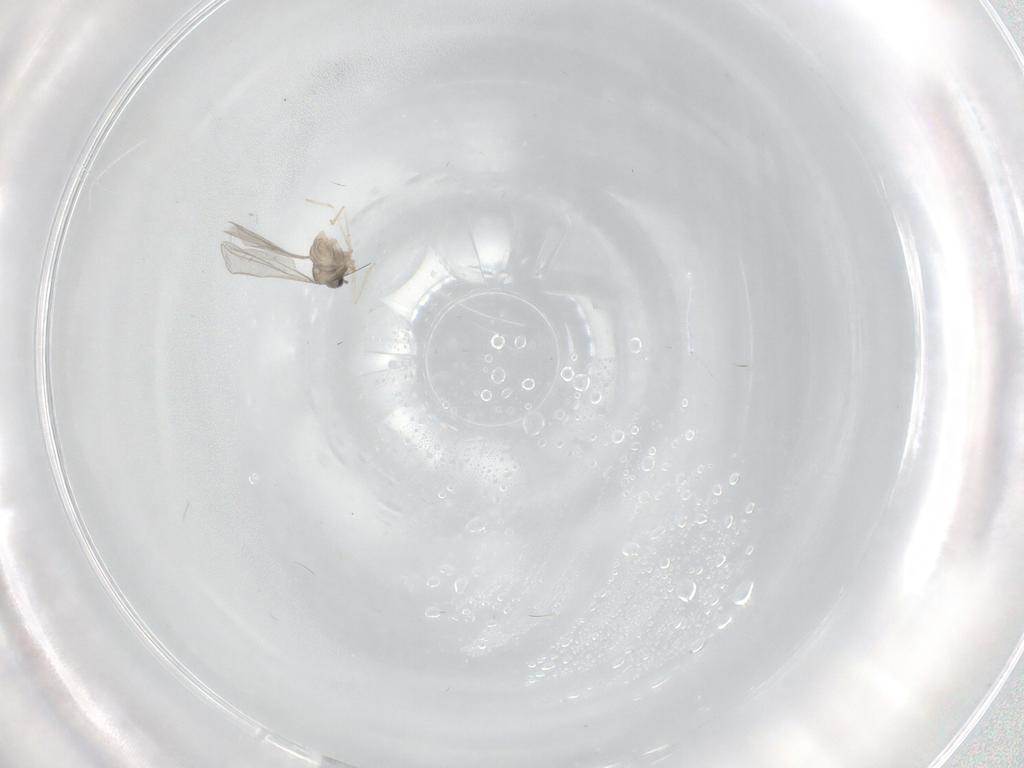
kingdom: Animalia
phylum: Arthropoda
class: Insecta
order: Diptera
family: Cecidomyiidae
